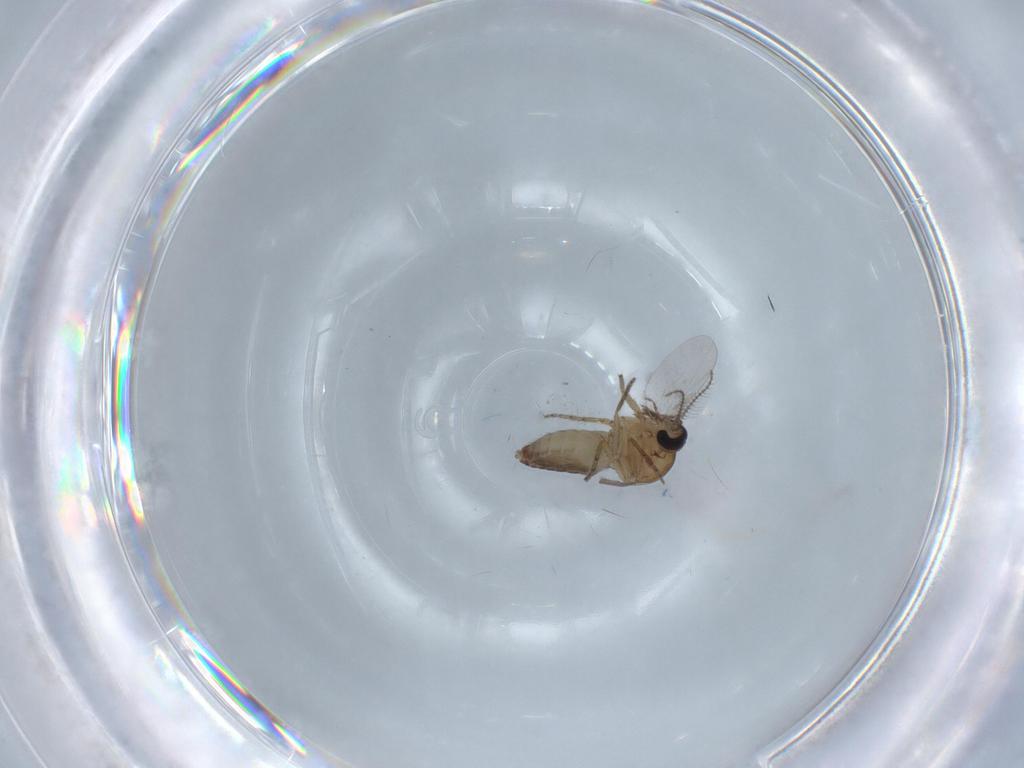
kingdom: Animalia
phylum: Arthropoda
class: Insecta
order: Diptera
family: Ceratopogonidae
